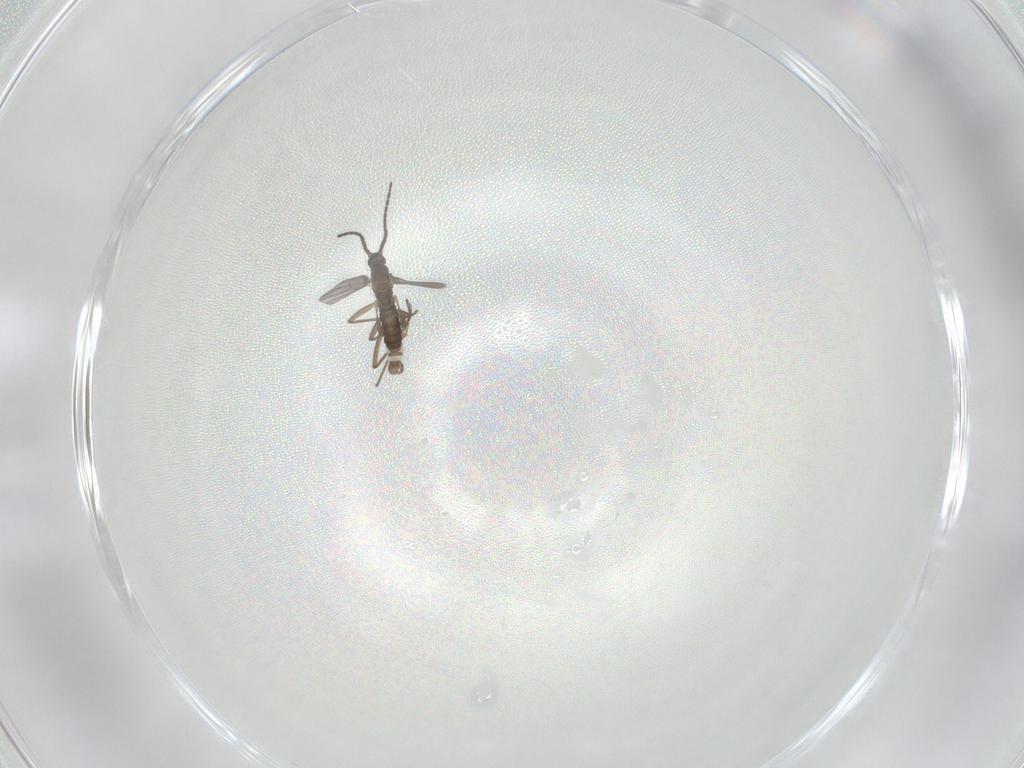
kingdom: Animalia
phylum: Arthropoda
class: Insecta
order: Diptera
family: Sciaridae
